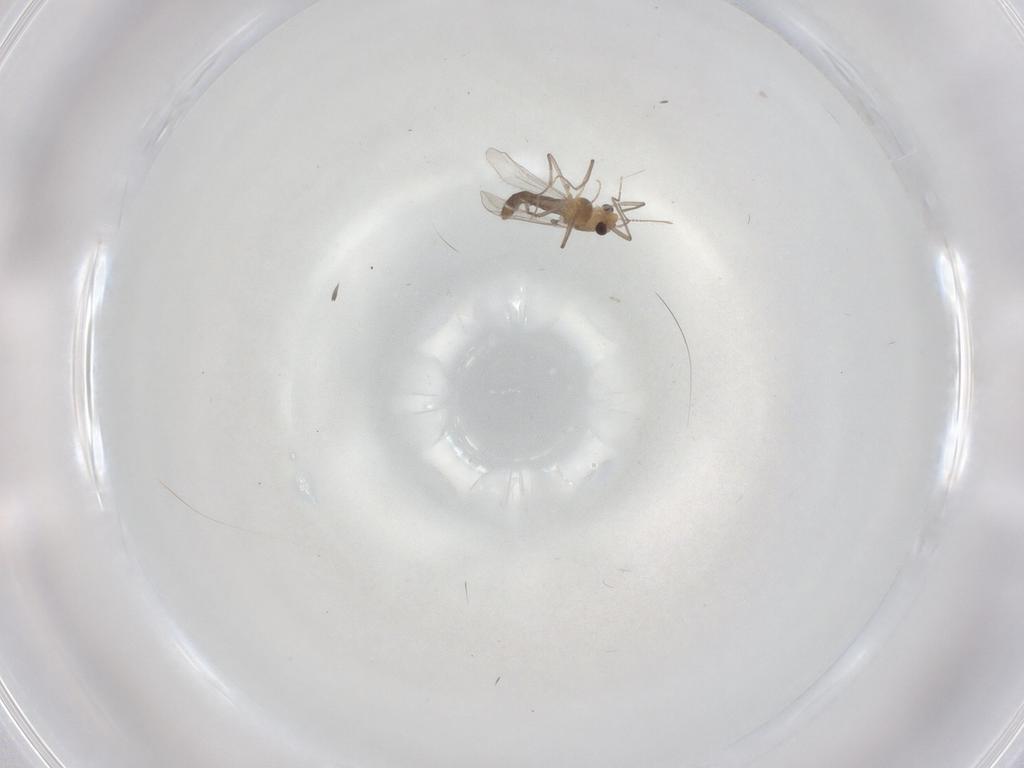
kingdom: Animalia
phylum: Arthropoda
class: Insecta
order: Diptera
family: Chironomidae
